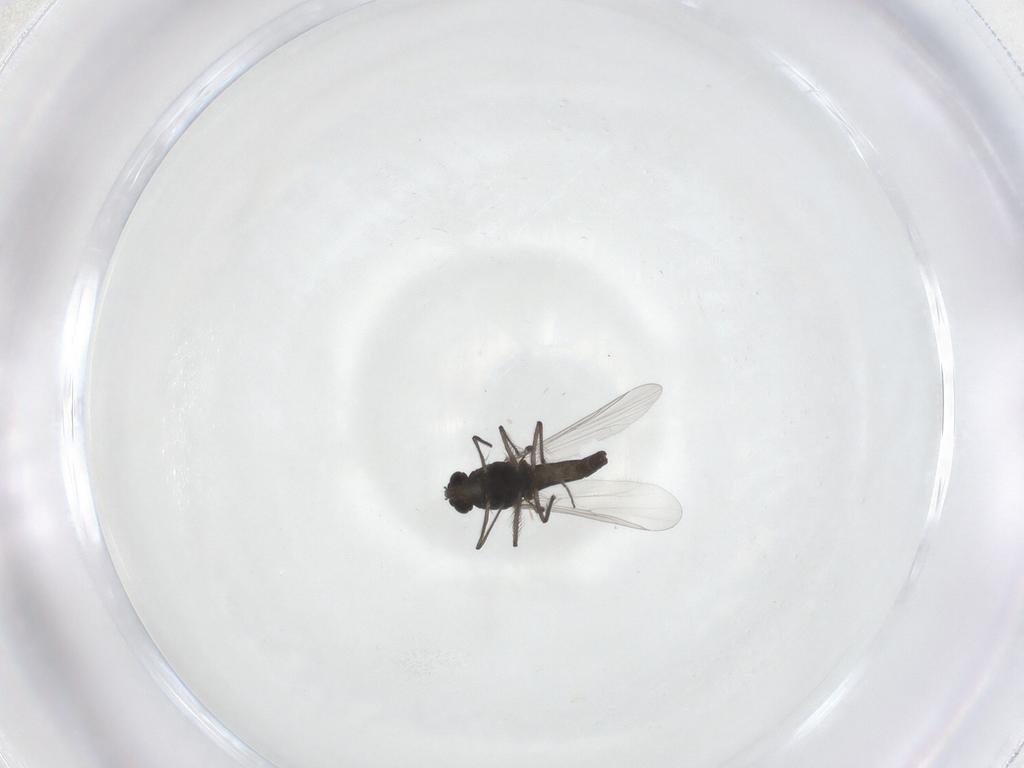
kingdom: Animalia
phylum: Arthropoda
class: Insecta
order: Diptera
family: Chironomidae
